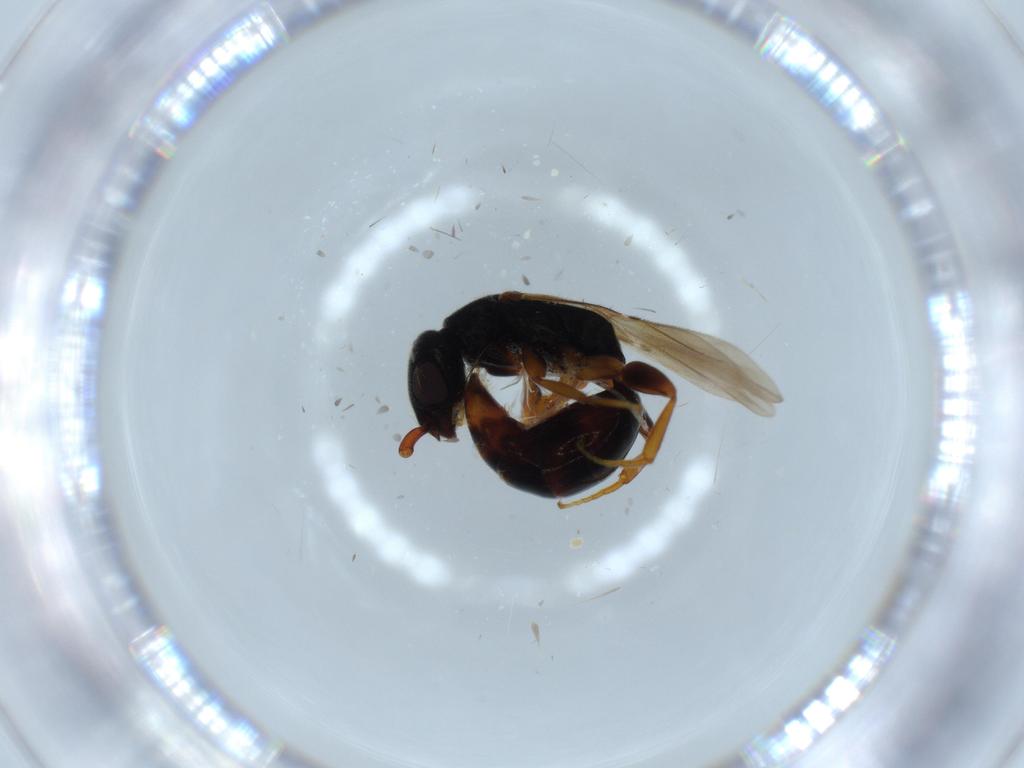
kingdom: Animalia
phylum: Arthropoda
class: Insecta
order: Hymenoptera
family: Bethylidae
